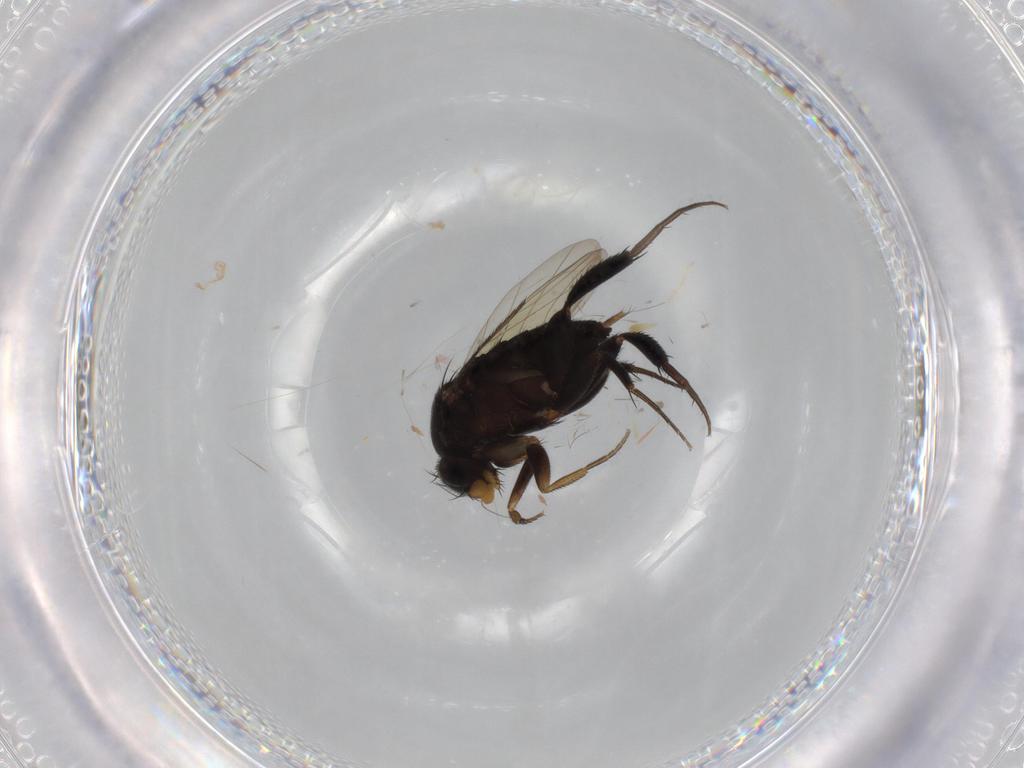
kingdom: Animalia
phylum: Arthropoda
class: Insecta
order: Diptera
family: Phoridae
